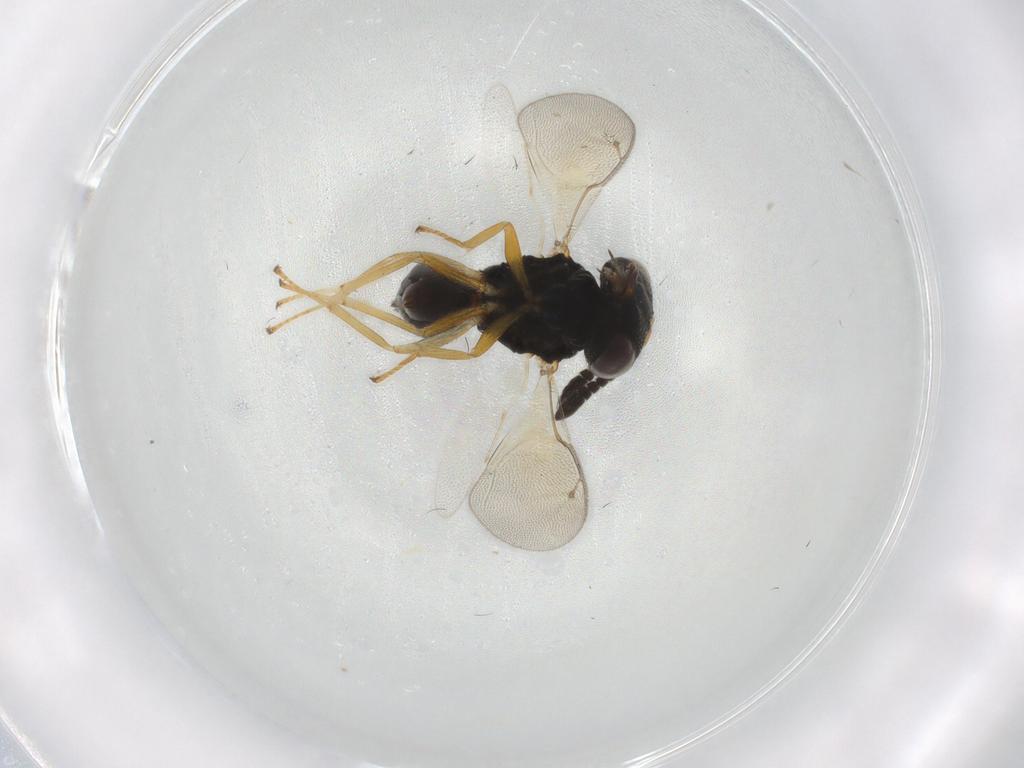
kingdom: Animalia
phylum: Arthropoda
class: Insecta
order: Hymenoptera
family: Pteromalidae
